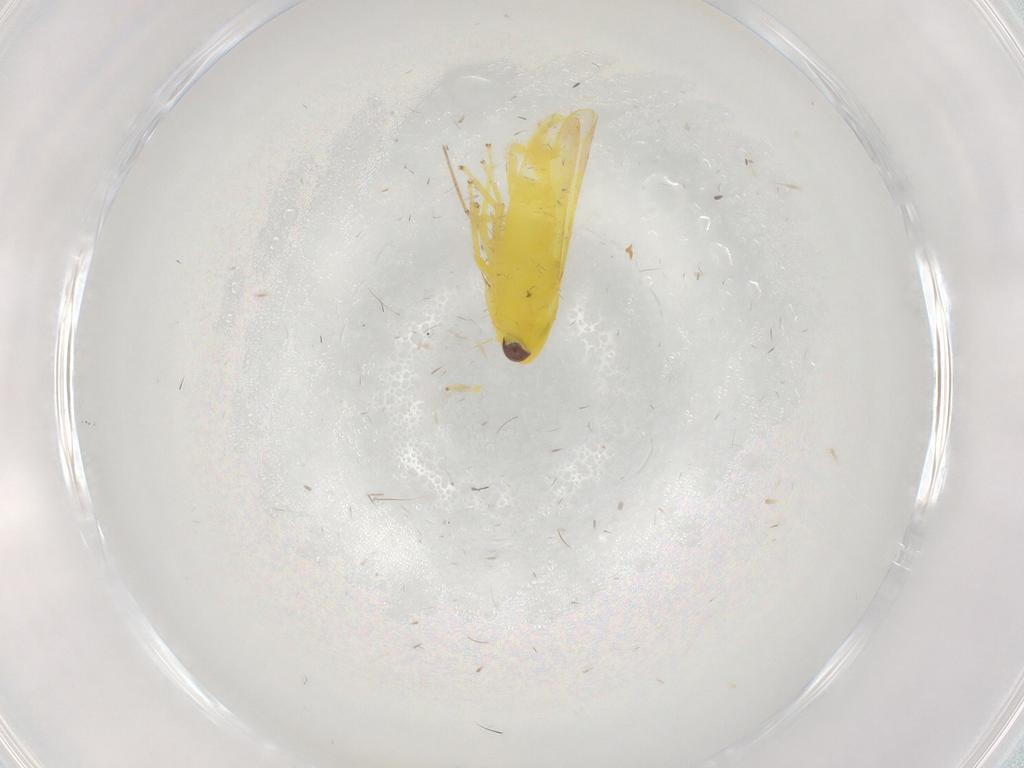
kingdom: Animalia
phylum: Arthropoda
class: Insecta
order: Hemiptera
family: Cicadellidae
